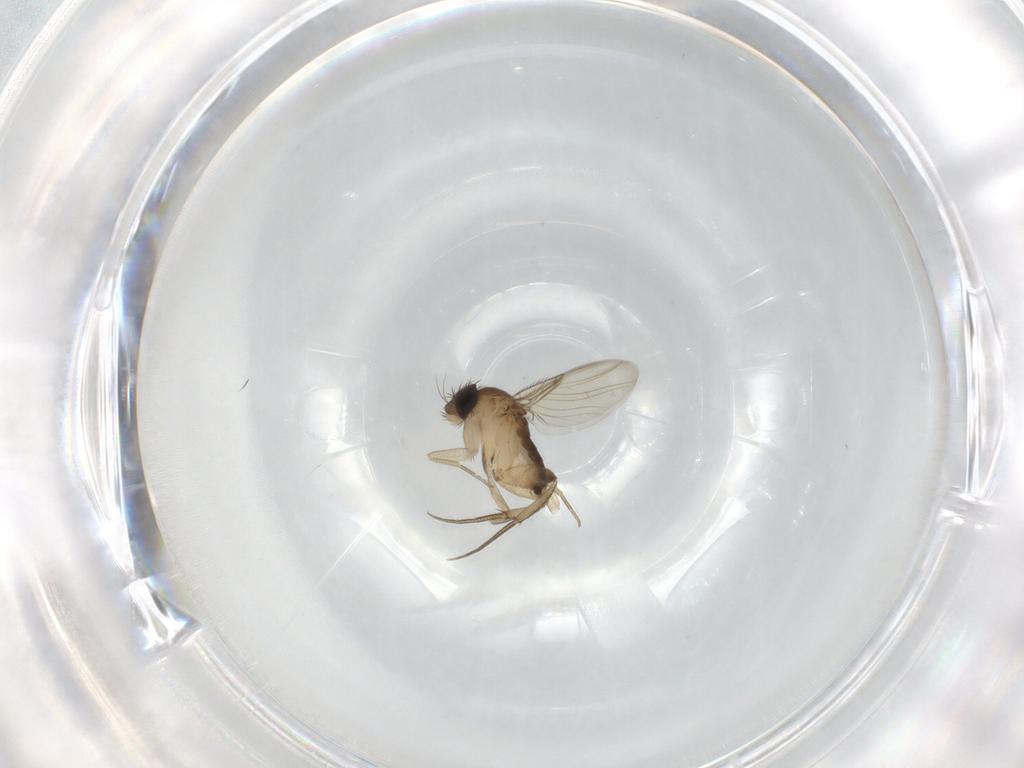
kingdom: Animalia
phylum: Arthropoda
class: Insecta
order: Diptera
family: Phoridae
